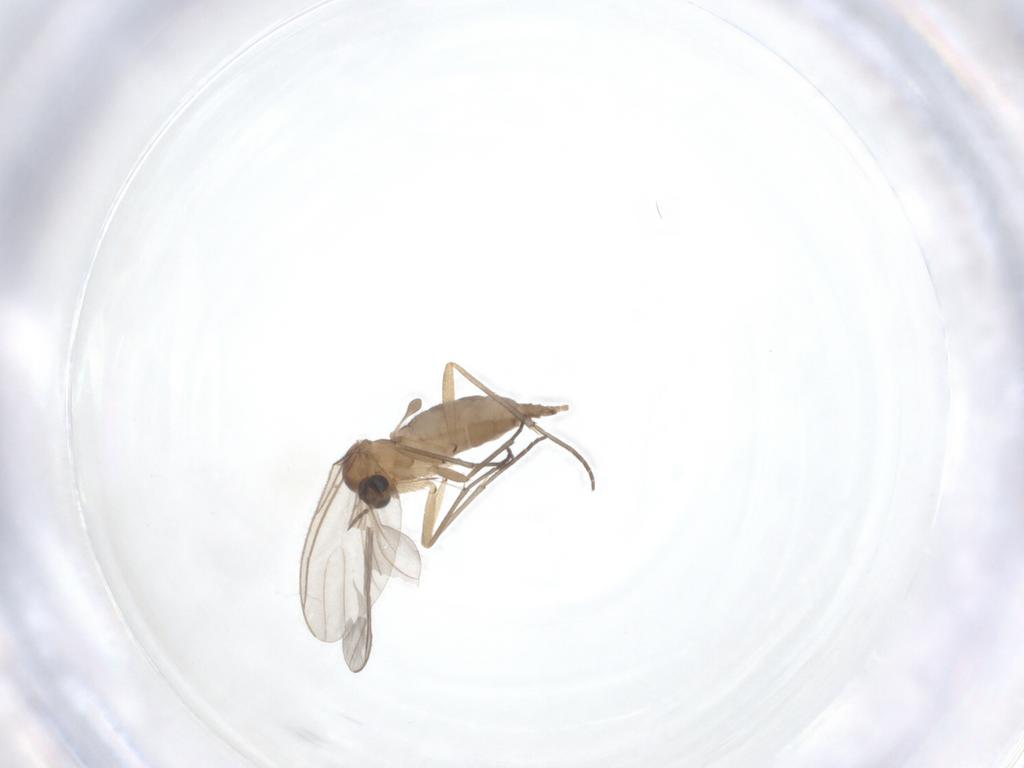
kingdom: Animalia
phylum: Arthropoda
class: Insecta
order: Diptera
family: Sciaridae
